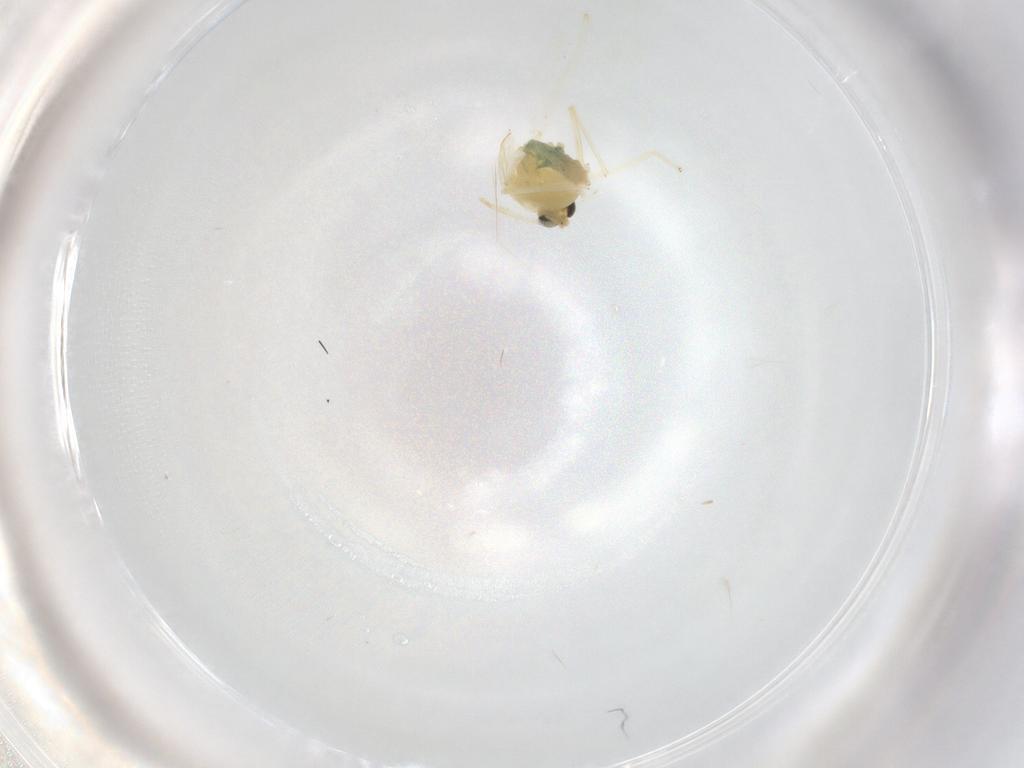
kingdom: Animalia
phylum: Arthropoda
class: Insecta
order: Diptera
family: Chironomidae
